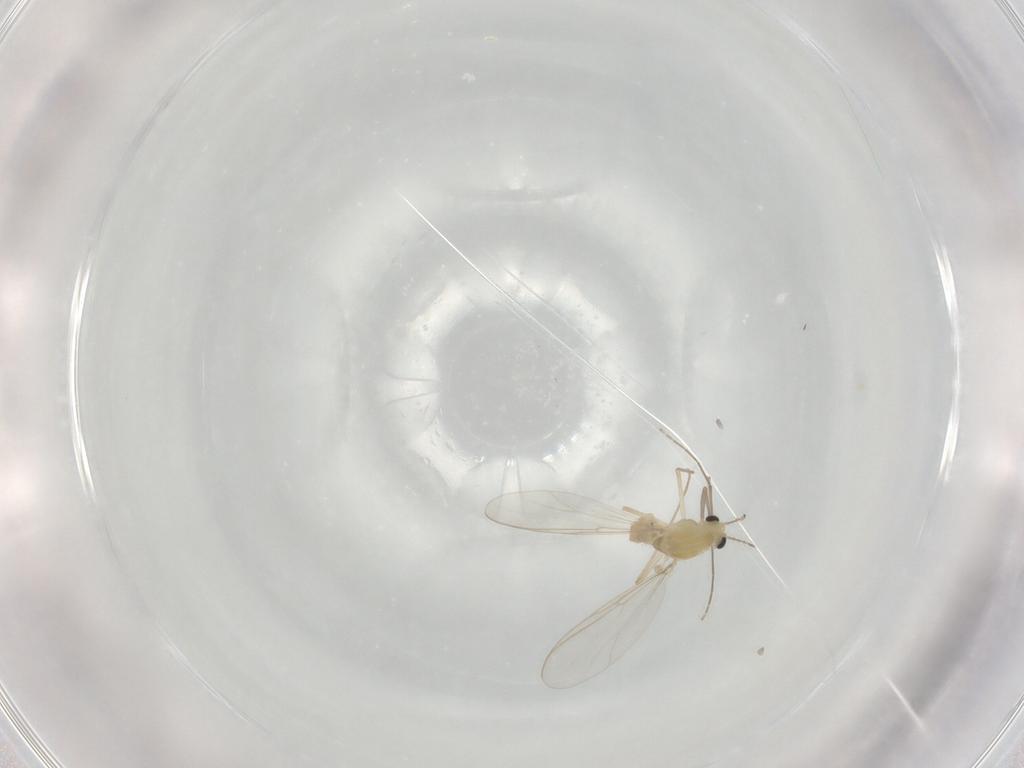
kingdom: Animalia
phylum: Arthropoda
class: Insecta
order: Diptera
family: Chironomidae
